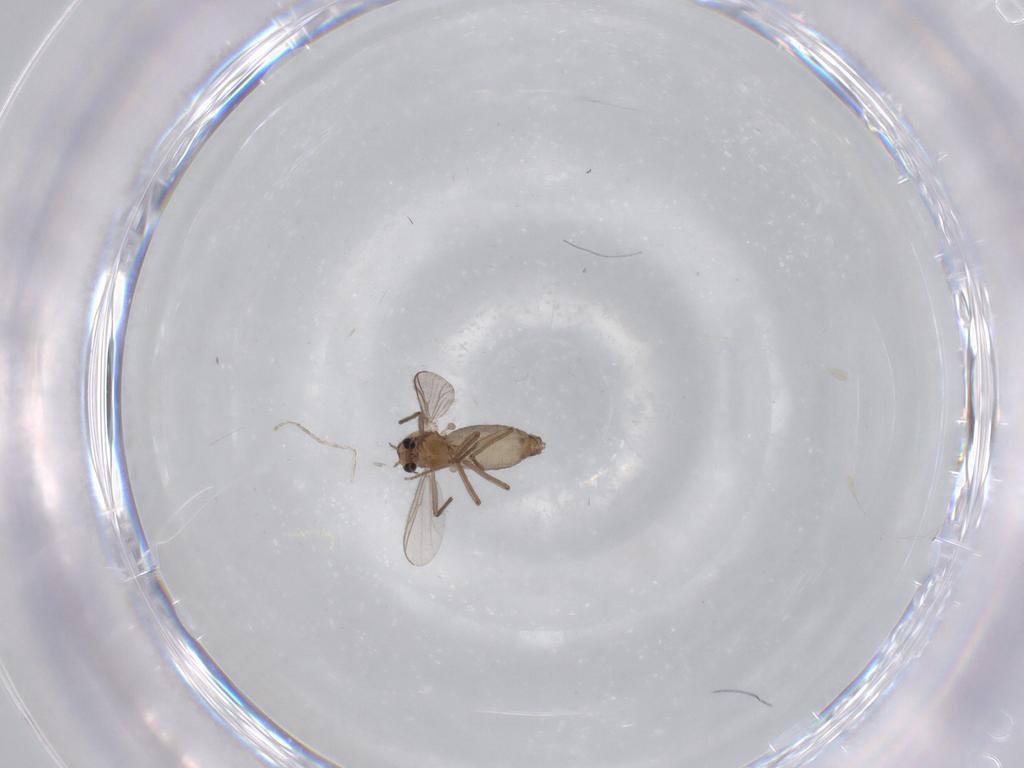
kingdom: Animalia
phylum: Arthropoda
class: Insecta
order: Diptera
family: Chironomidae
